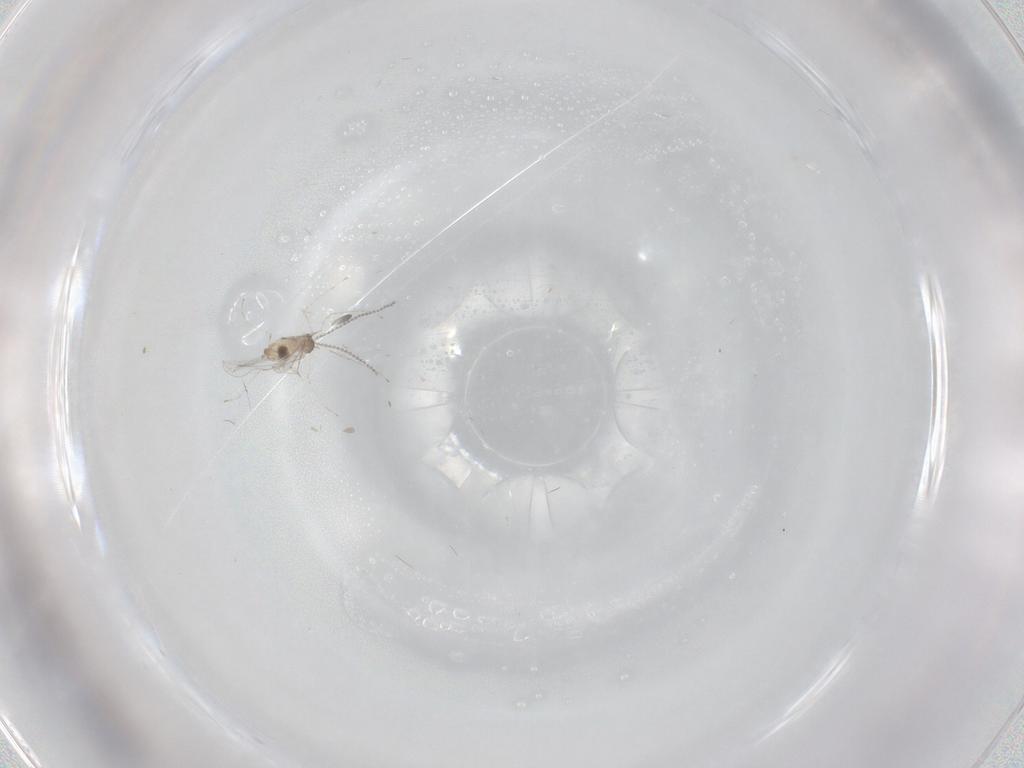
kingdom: Animalia
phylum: Arthropoda
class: Insecta
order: Diptera
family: Cecidomyiidae
